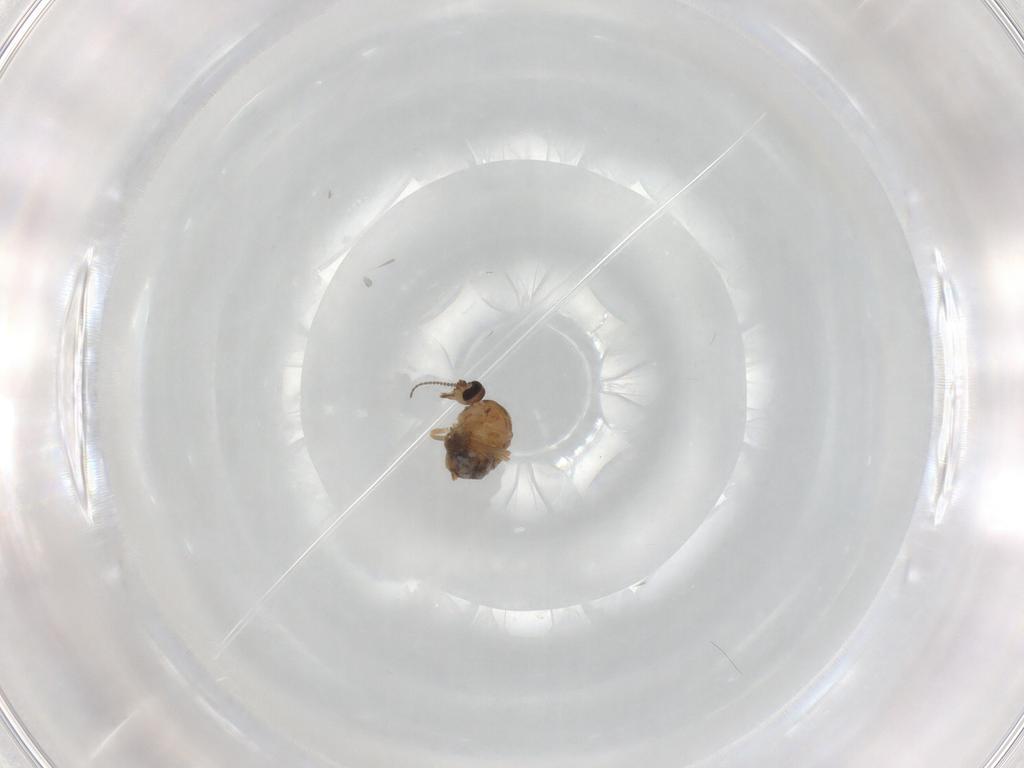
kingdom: Animalia
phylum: Arthropoda
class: Insecta
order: Diptera
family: Ceratopogonidae
